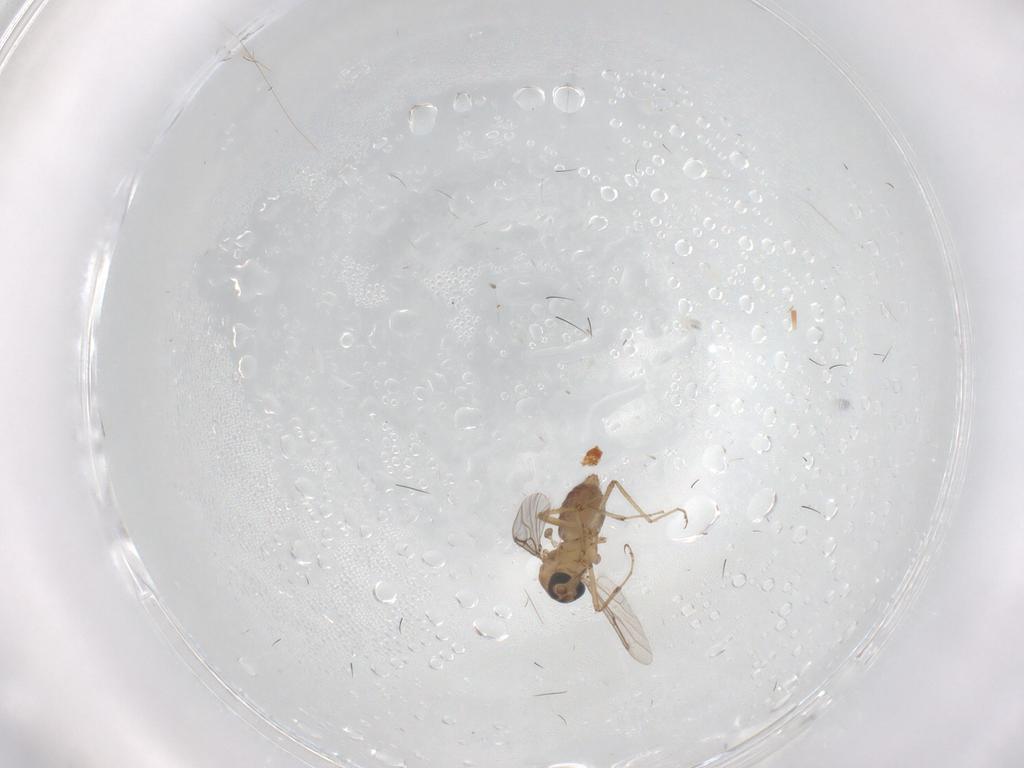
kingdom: Animalia
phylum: Arthropoda
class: Insecta
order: Diptera
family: Ceratopogonidae
